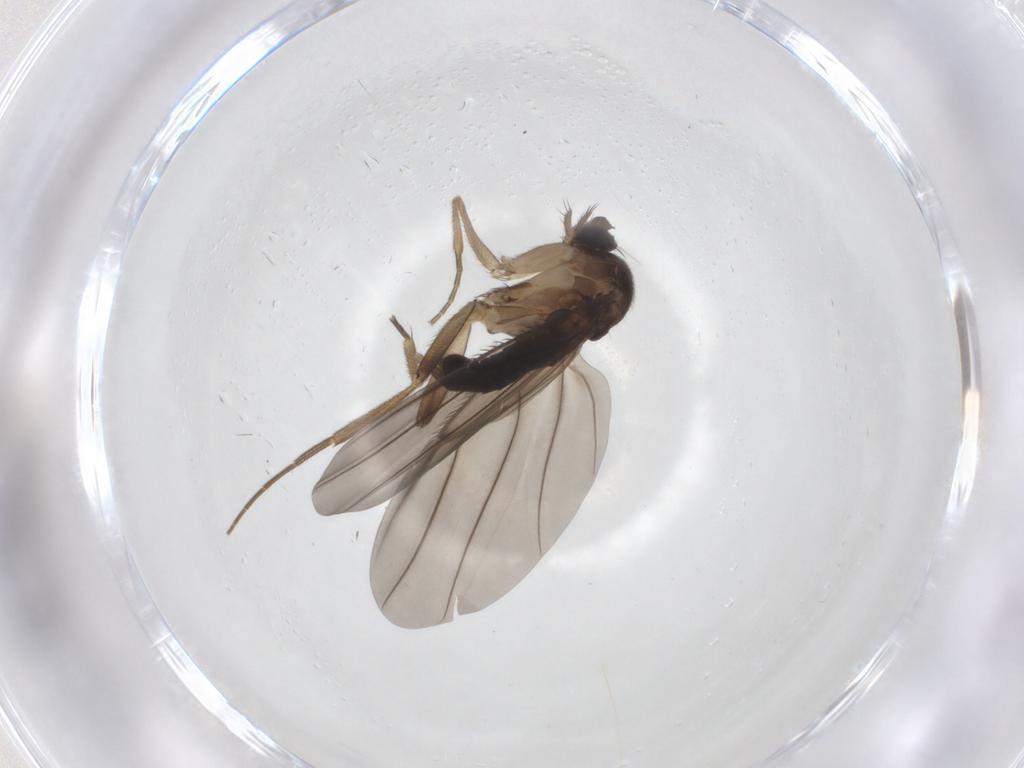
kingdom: Animalia
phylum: Arthropoda
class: Insecta
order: Diptera
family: Phoridae
